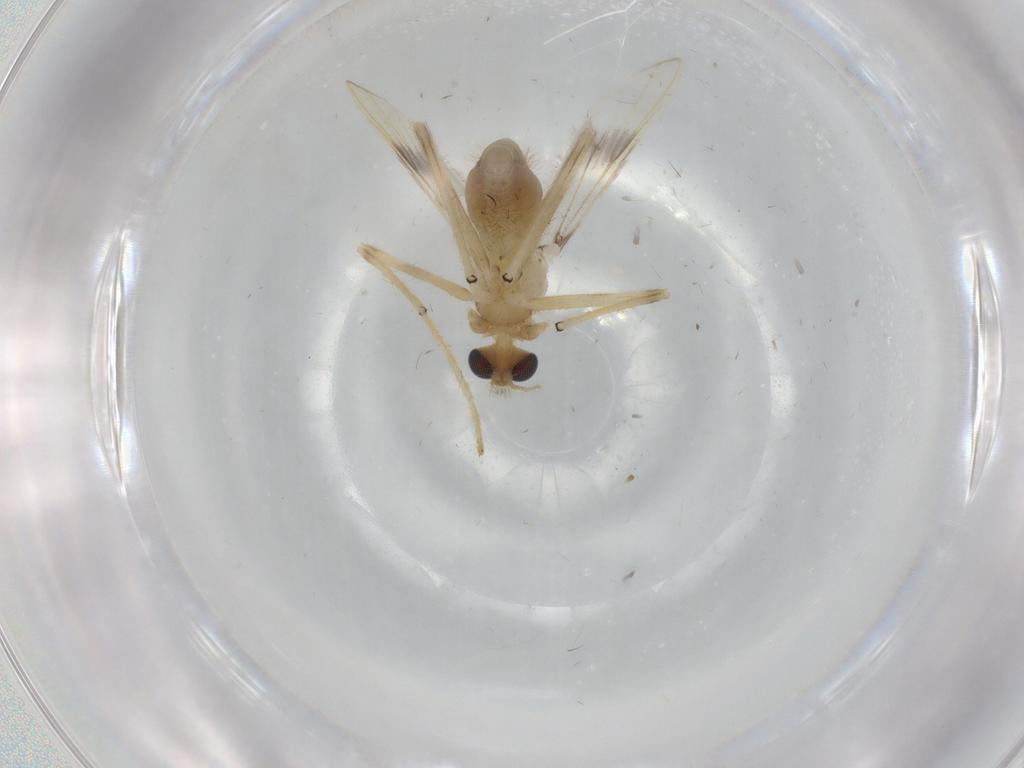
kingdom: Animalia
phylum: Arthropoda
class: Insecta
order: Diptera
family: Chironomidae
